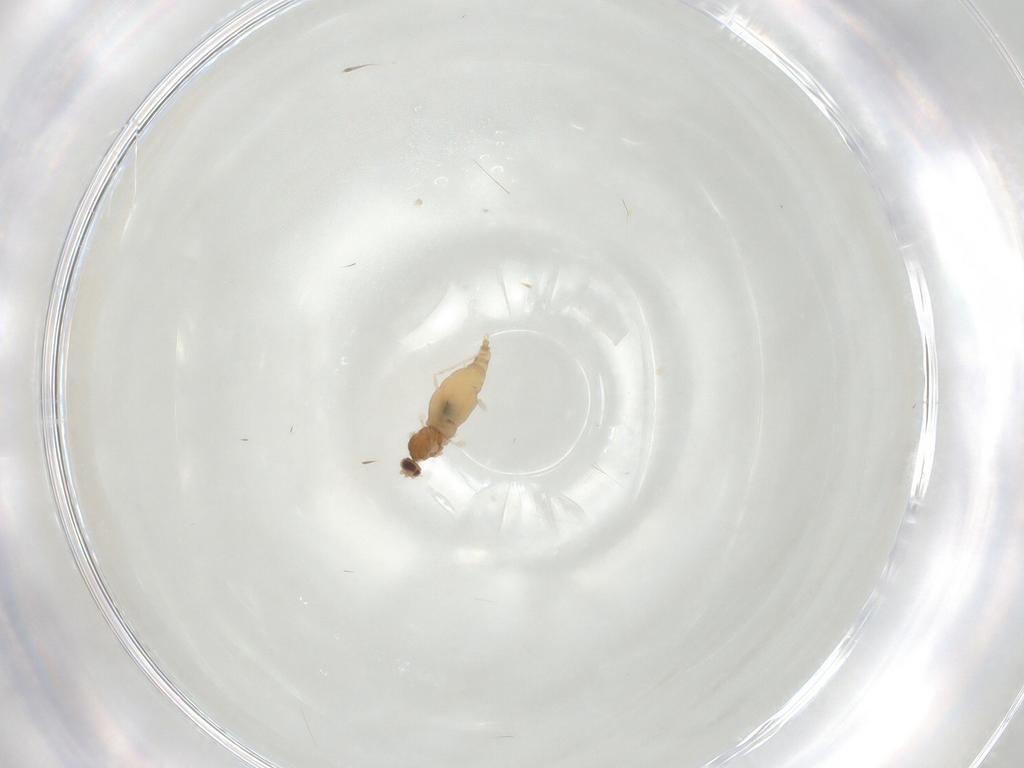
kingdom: Animalia
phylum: Arthropoda
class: Insecta
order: Diptera
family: Cecidomyiidae
